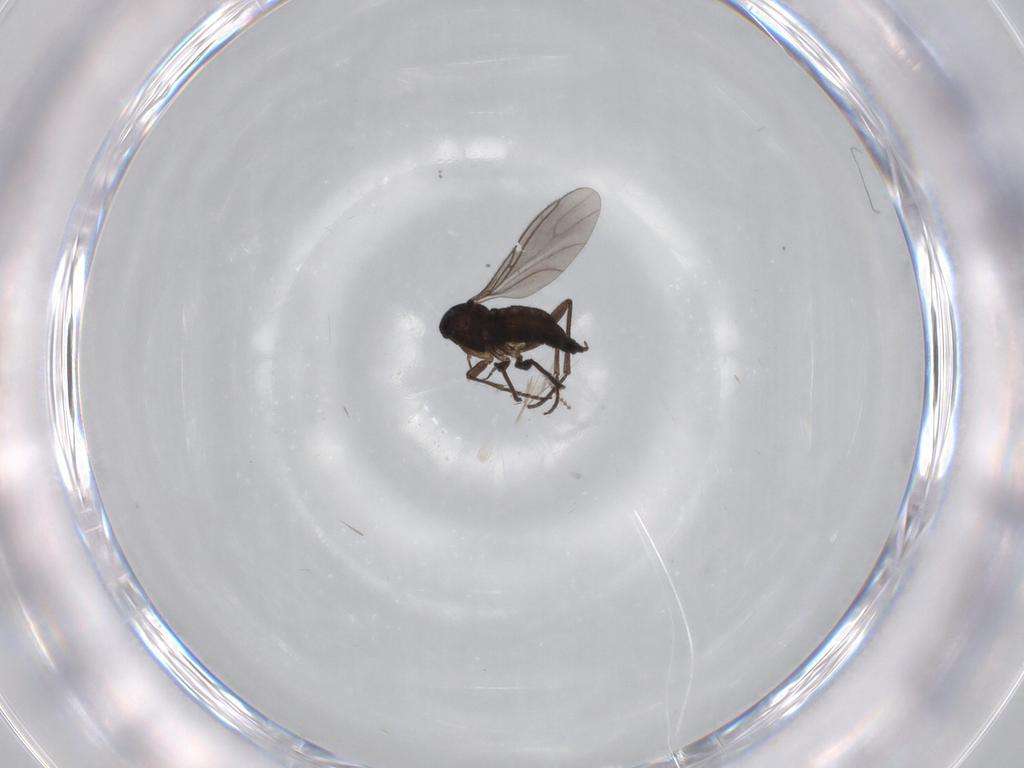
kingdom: Animalia
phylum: Arthropoda
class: Insecta
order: Diptera
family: Sciaridae
